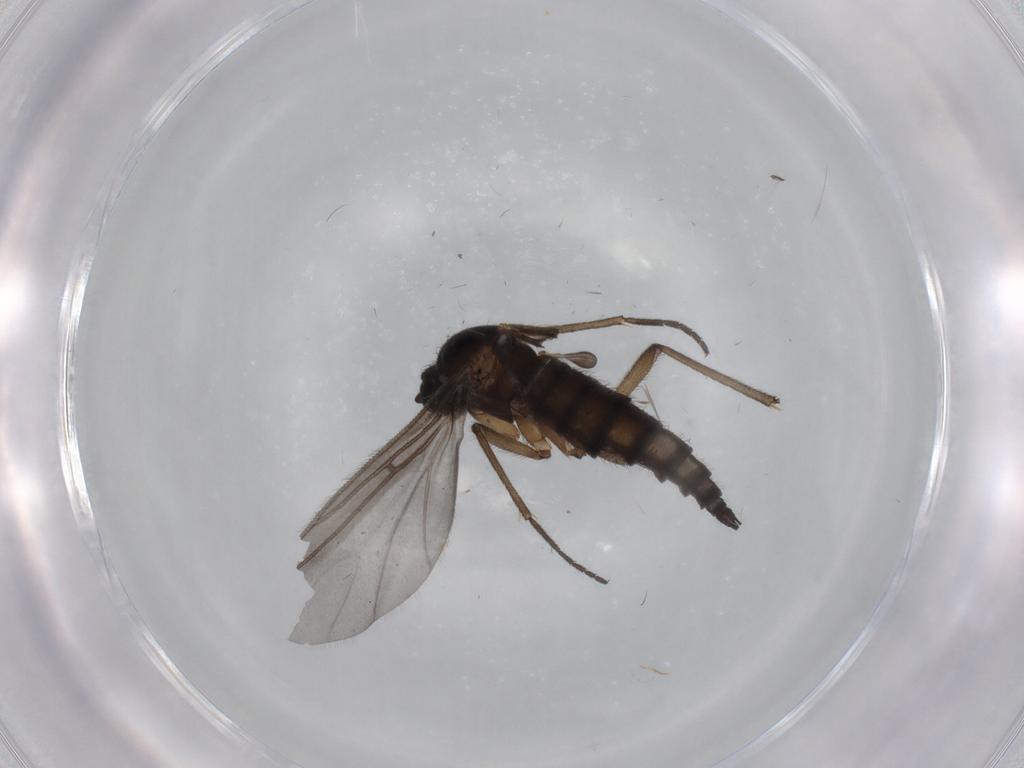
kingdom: Animalia
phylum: Arthropoda
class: Insecta
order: Diptera
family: Sciaridae
